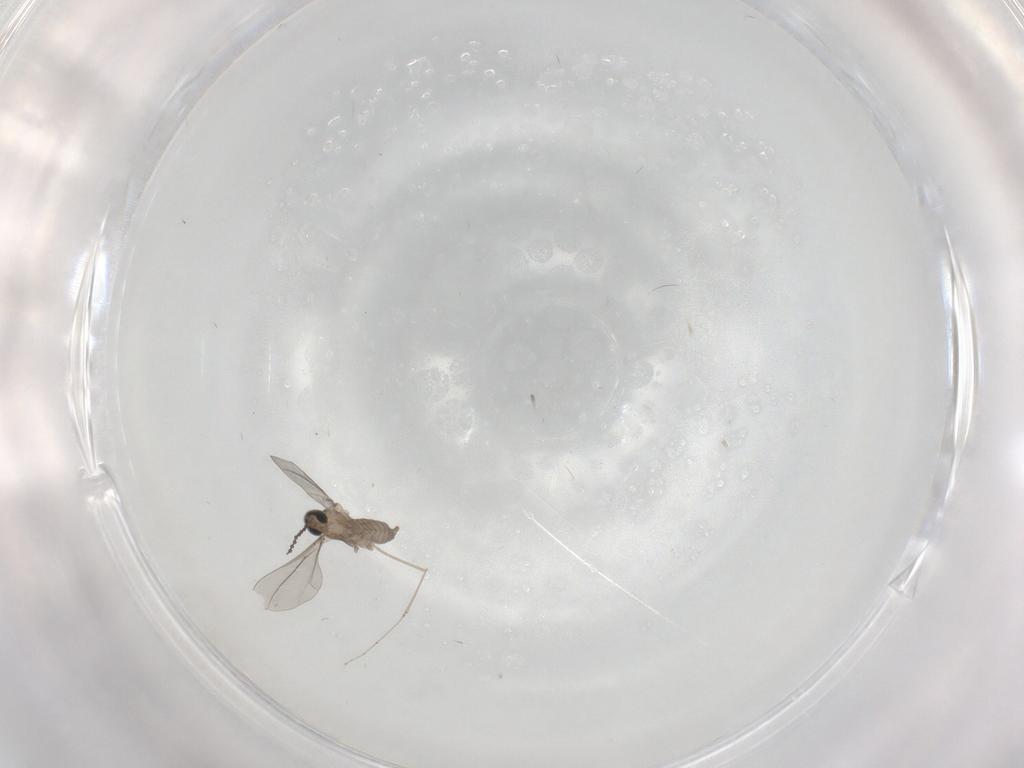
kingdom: Animalia
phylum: Arthropoda
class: Insecta
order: Diptera
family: Cecidomyiidae
